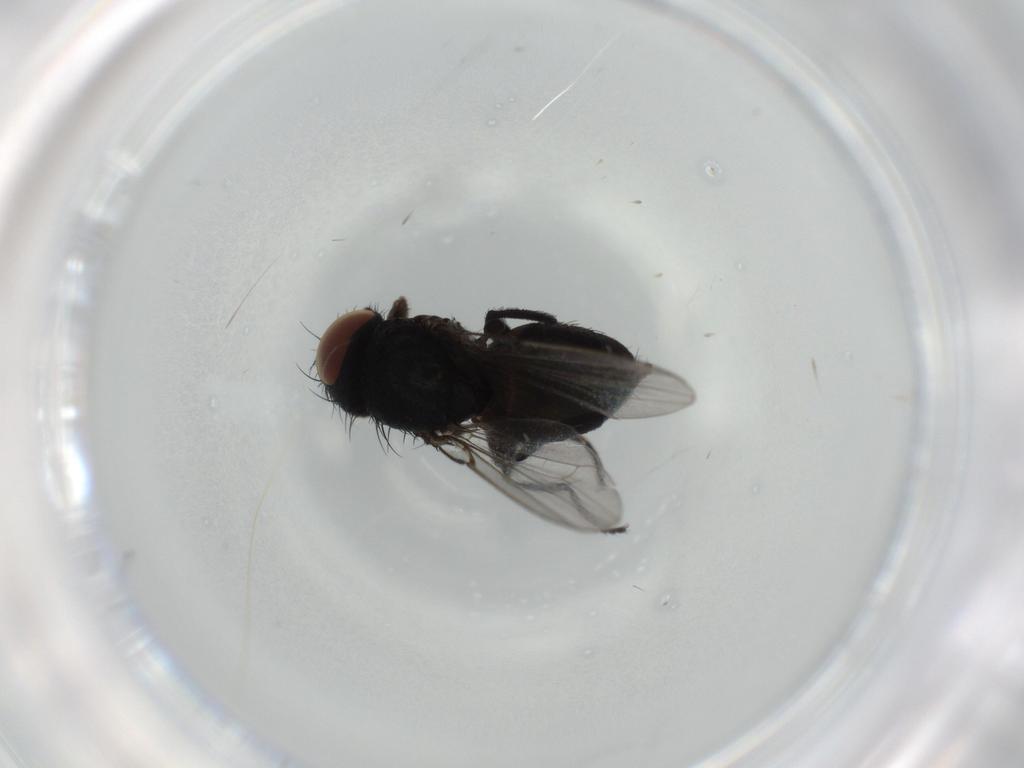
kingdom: Animalia
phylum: Arthropoda
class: Insecta
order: Diptera
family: Milichiidae
